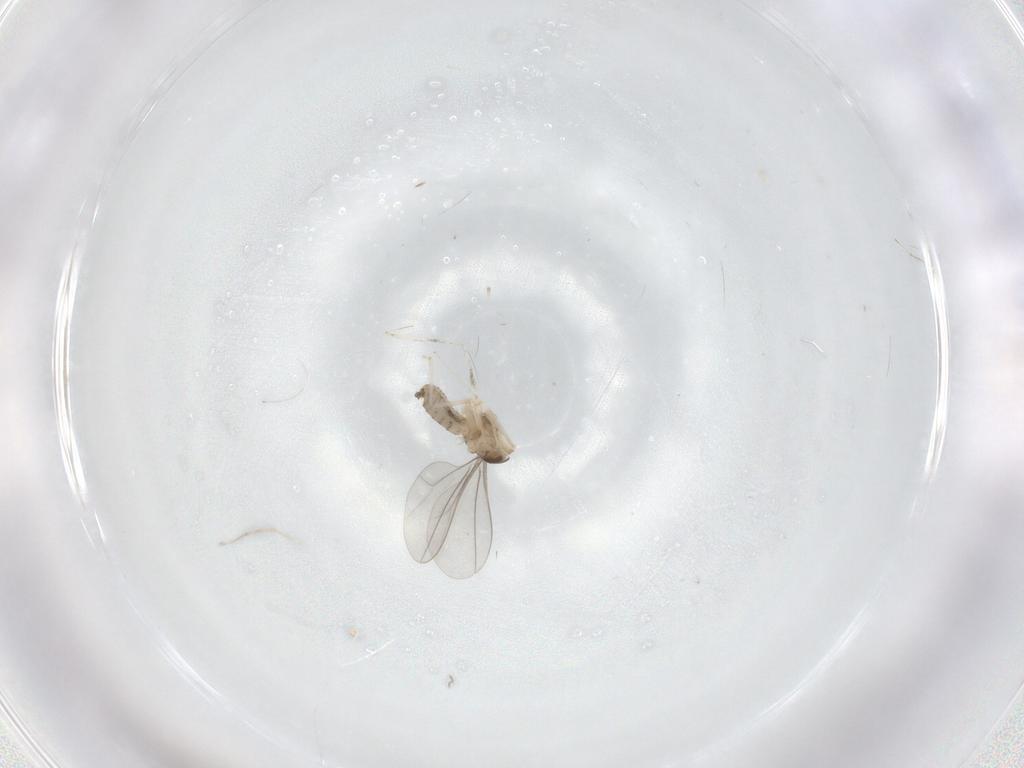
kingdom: Animalia
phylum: Arthropoda
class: Insecta
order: Diptera
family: Cecidomyiidae
